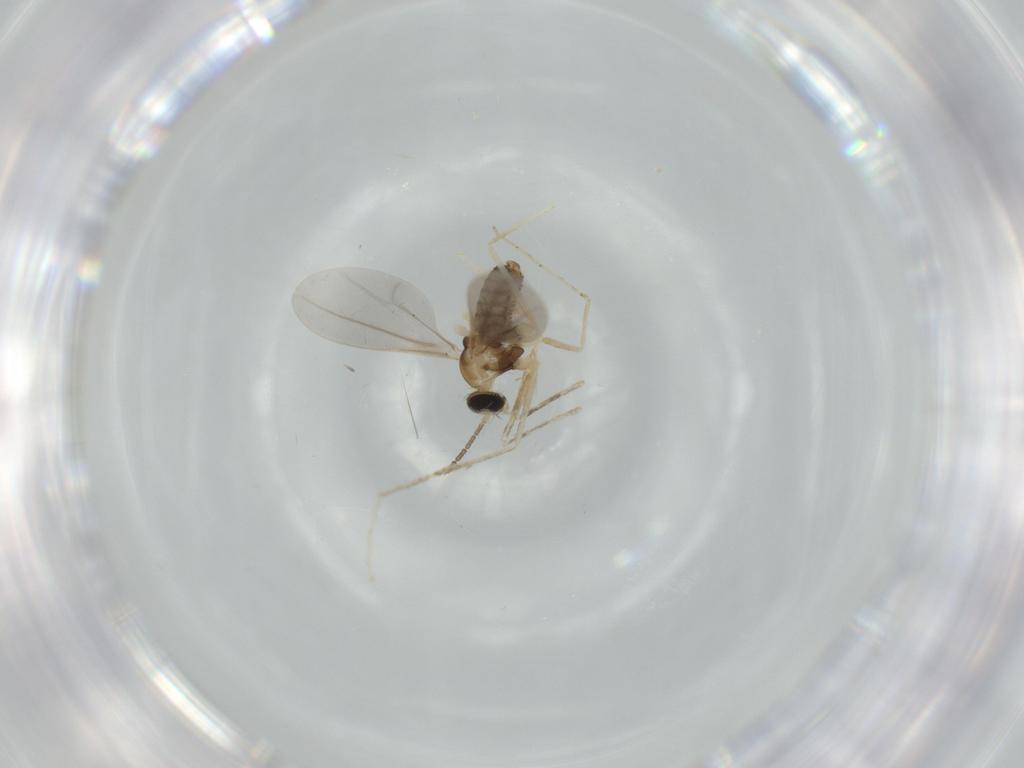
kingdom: Animalia
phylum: Arthropoda
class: Insecta
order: Diptera
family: Cecidomyiidae
